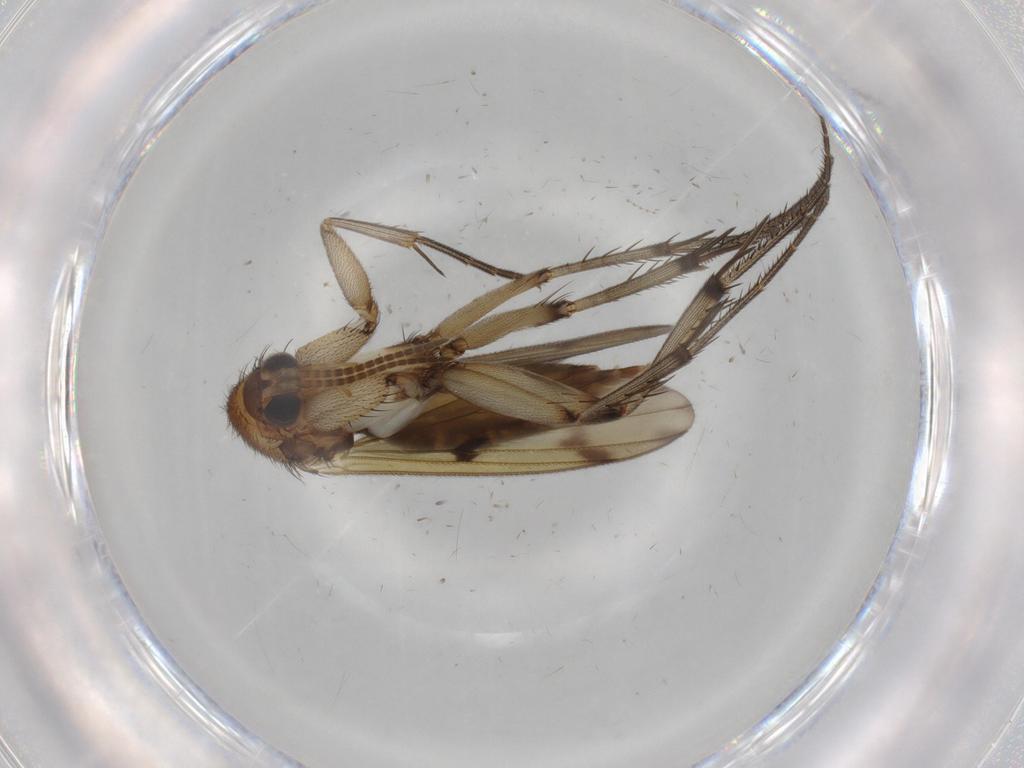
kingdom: Animalia
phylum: Arthropoda
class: Insecta
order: Diptera
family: Mycetophilidae
